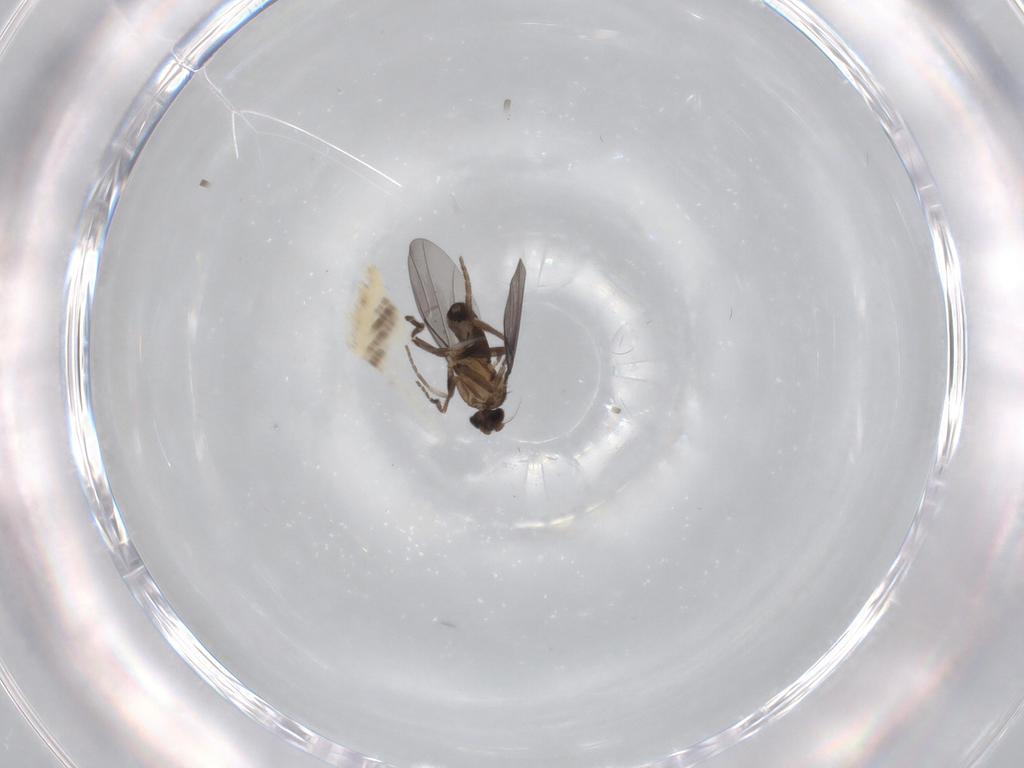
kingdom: Animalia
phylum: Arthropoda
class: Insecta
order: Diptera
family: Phoridae
